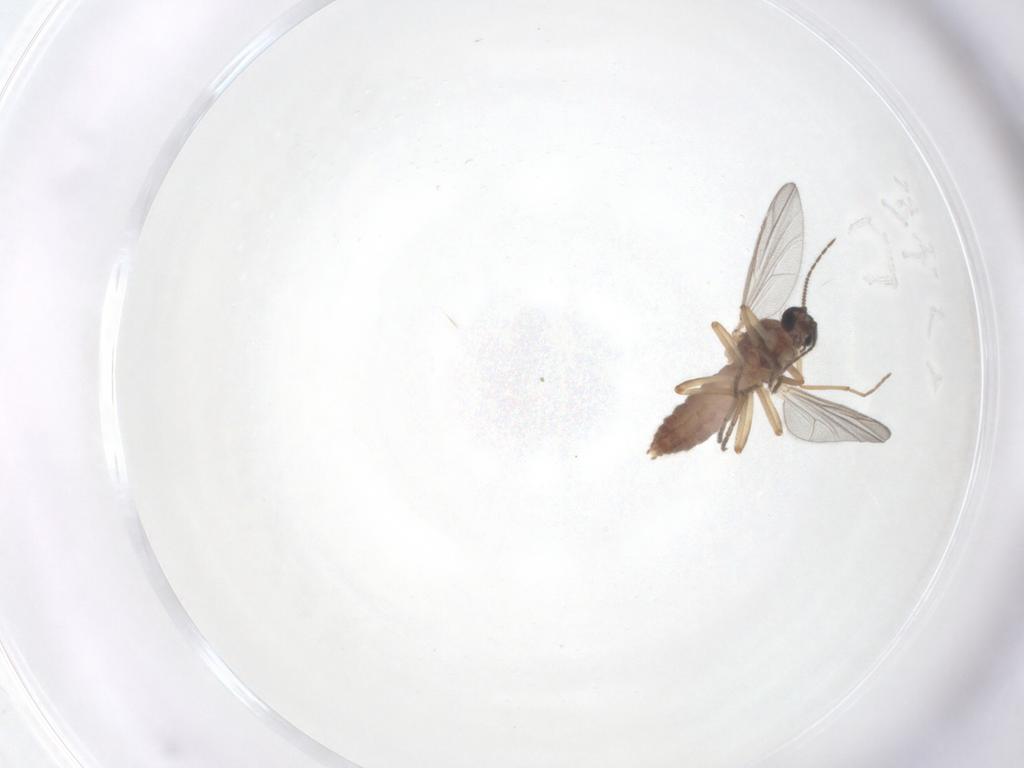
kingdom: Animalia
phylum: Arthropoda
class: Insecta
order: Diptera
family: Ceratopogonidae
